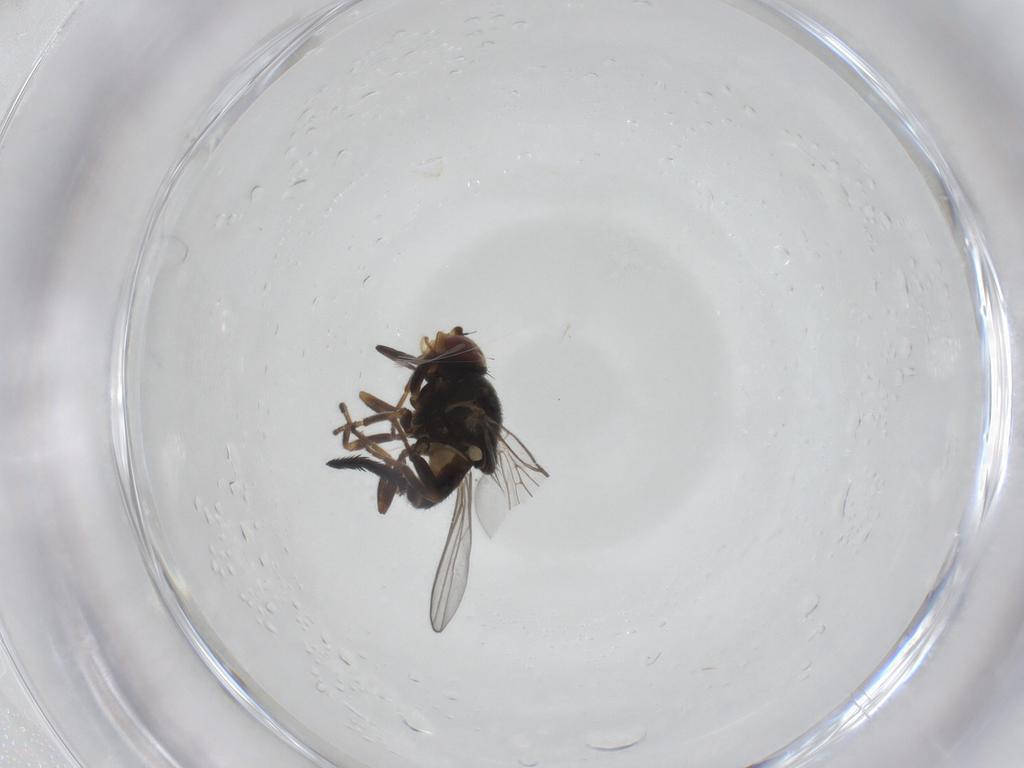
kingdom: Animalia
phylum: Arthropoda
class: Insecta
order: Diptera
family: Chloropidae
